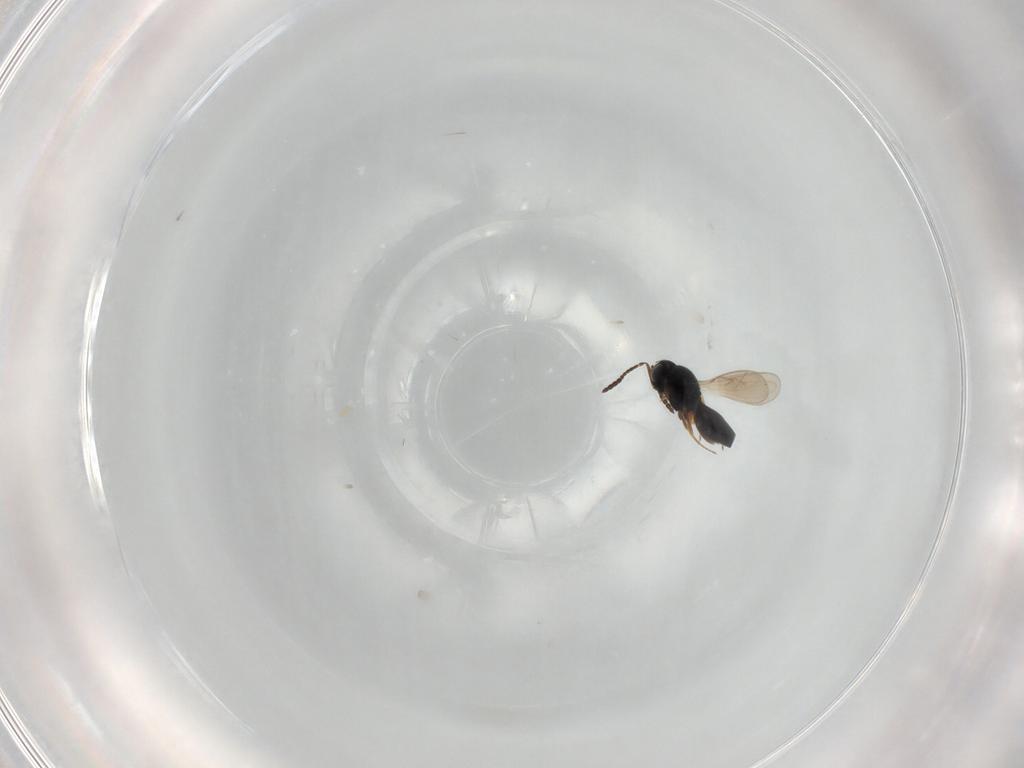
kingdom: Animalia
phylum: Arthropoda
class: Insecta
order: Hymenoptera
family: Scelionidae
